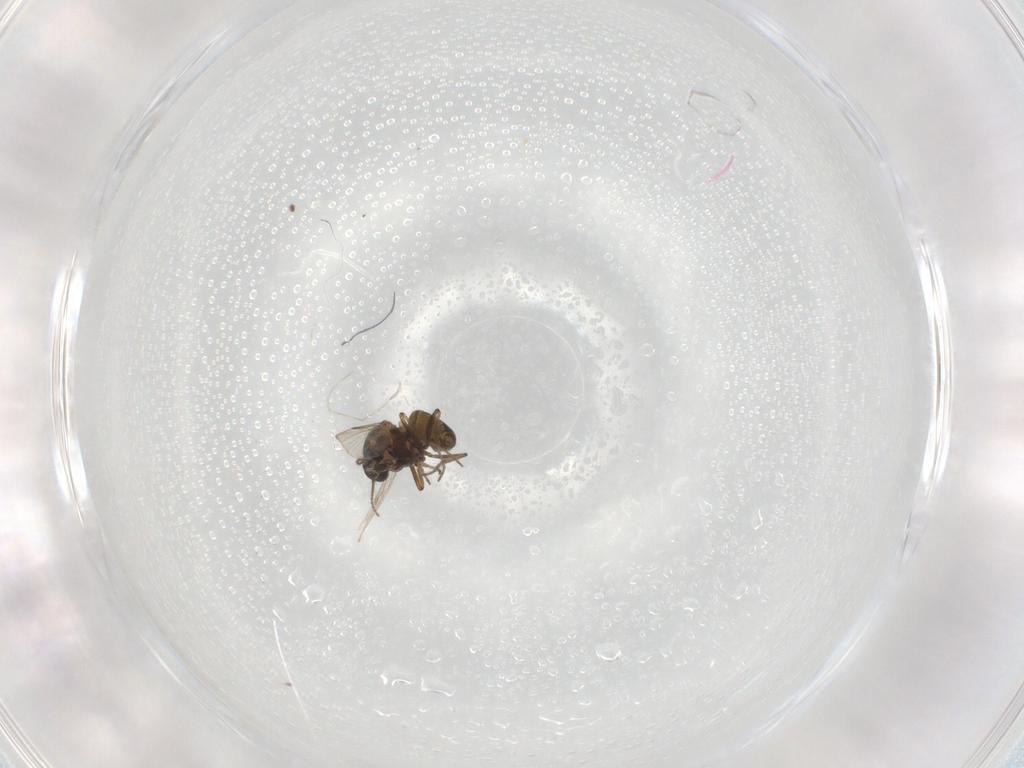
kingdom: Animalia
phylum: Arthropoda
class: Insecta
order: Diptera
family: Ceratopogonidae
